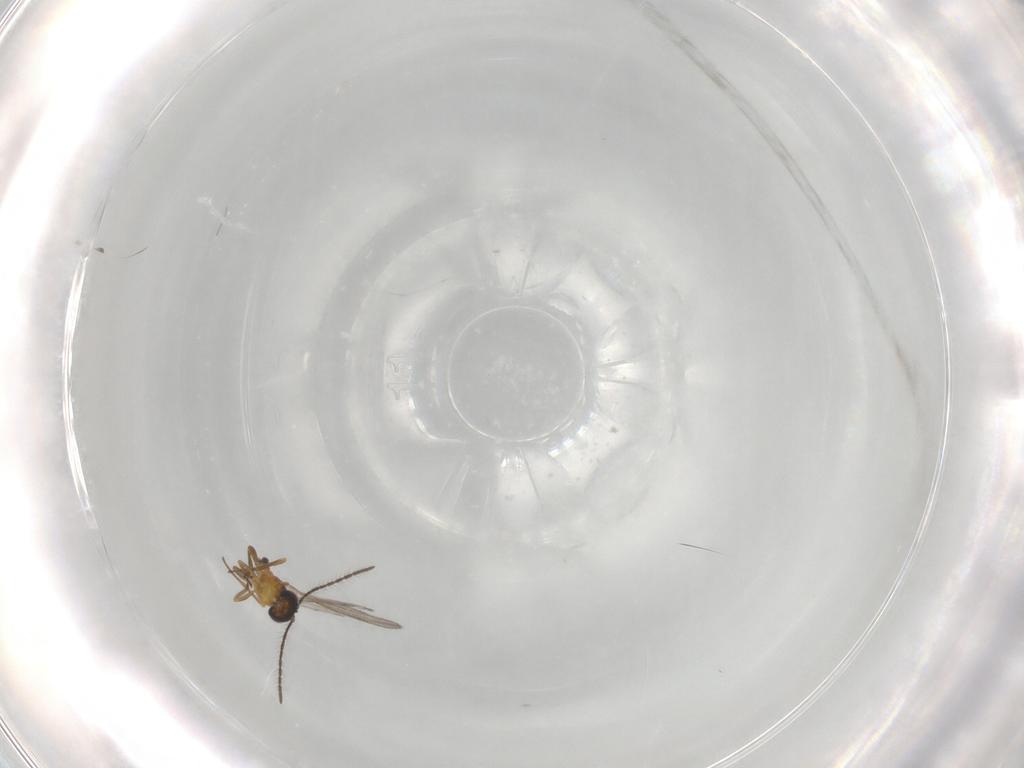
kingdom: Animalia
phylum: Arthropoda
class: Insecta
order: Hymenoptera
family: Eupelmidae
